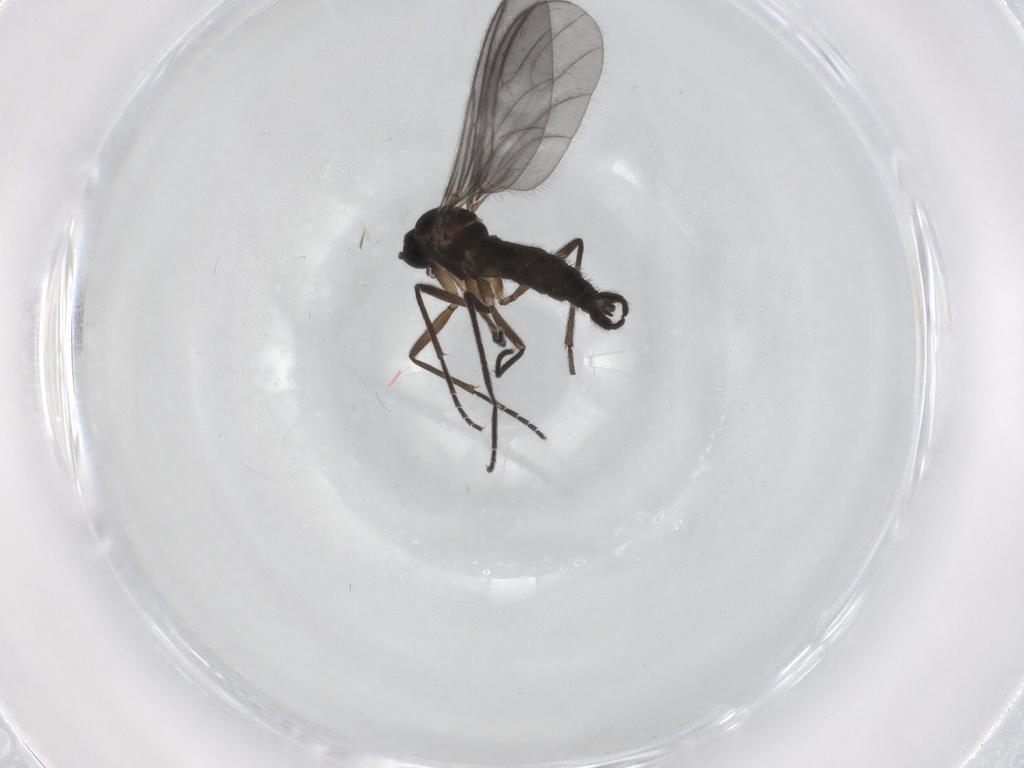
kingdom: Animalia
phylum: Arthropoda
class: Insecta
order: Diptera
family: Sciaridae
